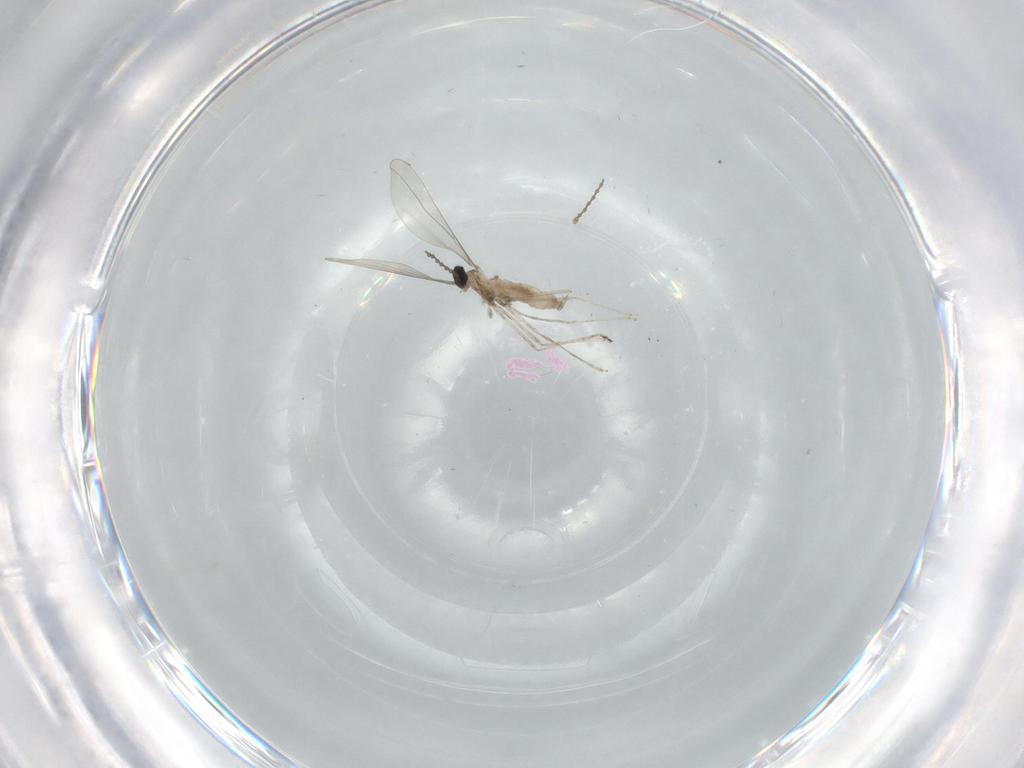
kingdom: Animalia
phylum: Arthropoda
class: Insecta
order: Diptera
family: Cecidomyiidae
